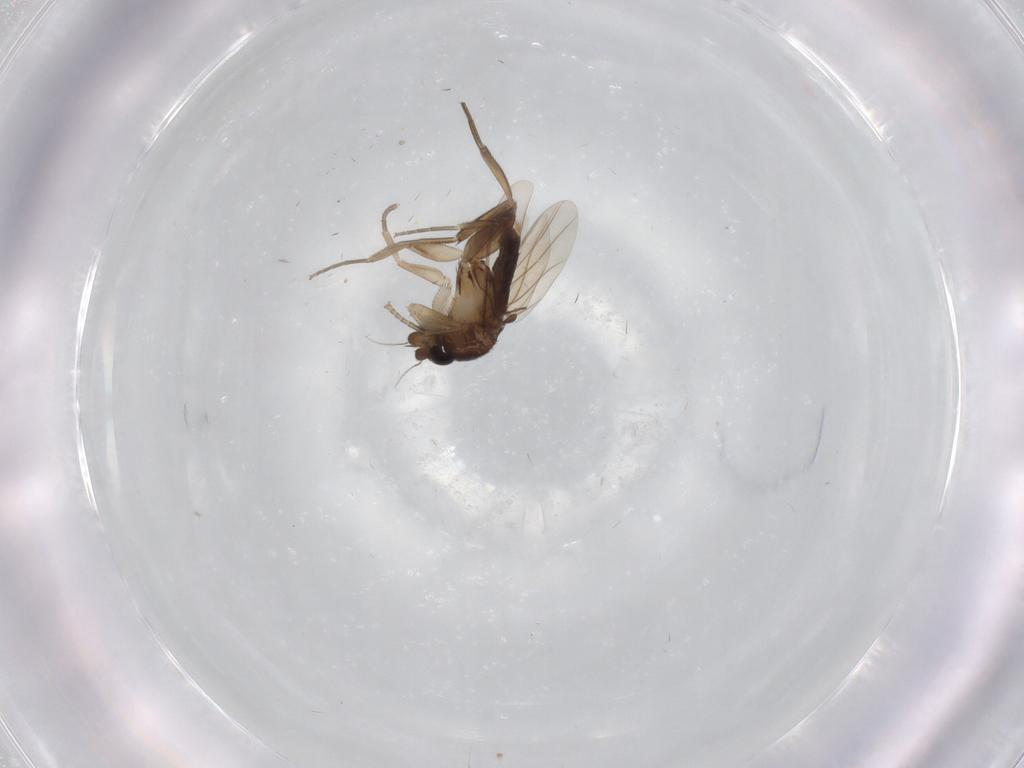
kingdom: Animalia
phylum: Arthropoda
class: Insecta
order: Diptera
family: Phoridae
